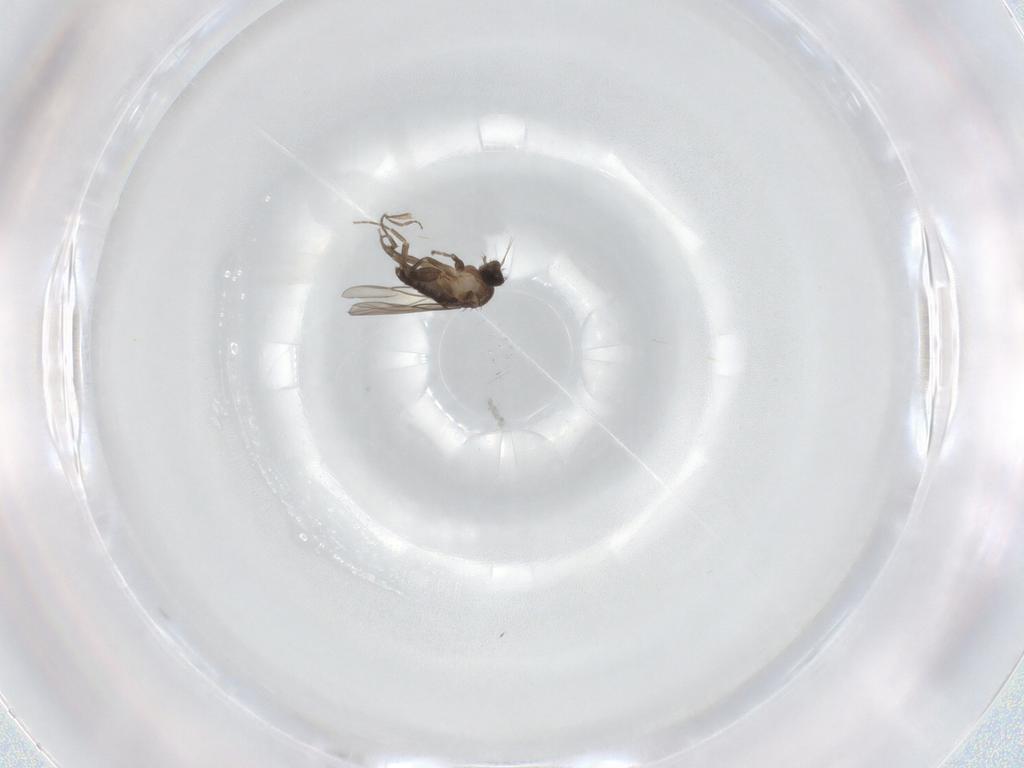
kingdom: Animalia
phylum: Arthropoda
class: Insecta
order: Diptera
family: Phoridae
